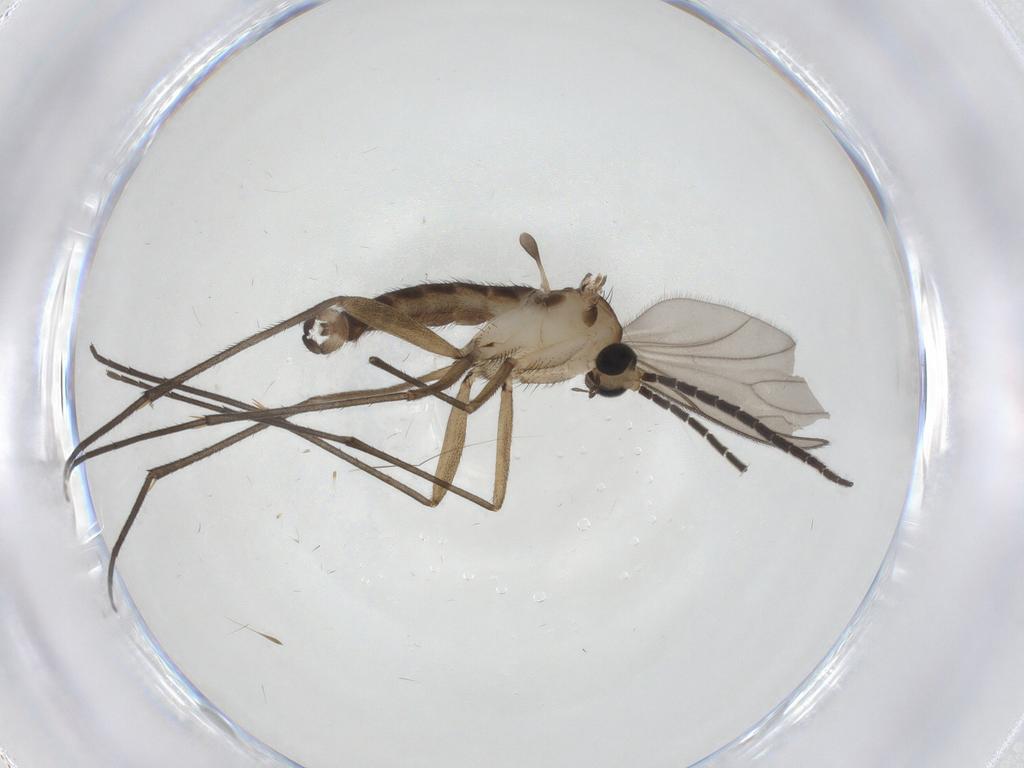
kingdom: Animalia
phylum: Arthropoda
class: Insecta
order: Diptera
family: Sciaridae
